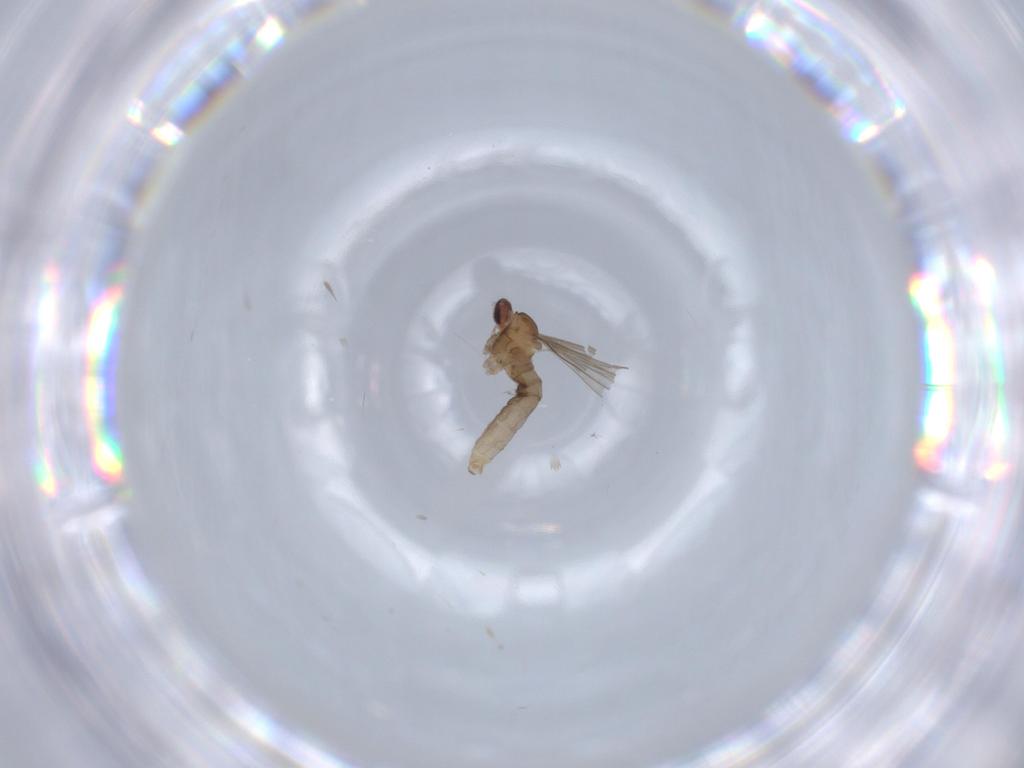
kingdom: Animalia
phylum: Arthropoda
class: Insecta
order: Diptera
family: Cecidomyiidae
